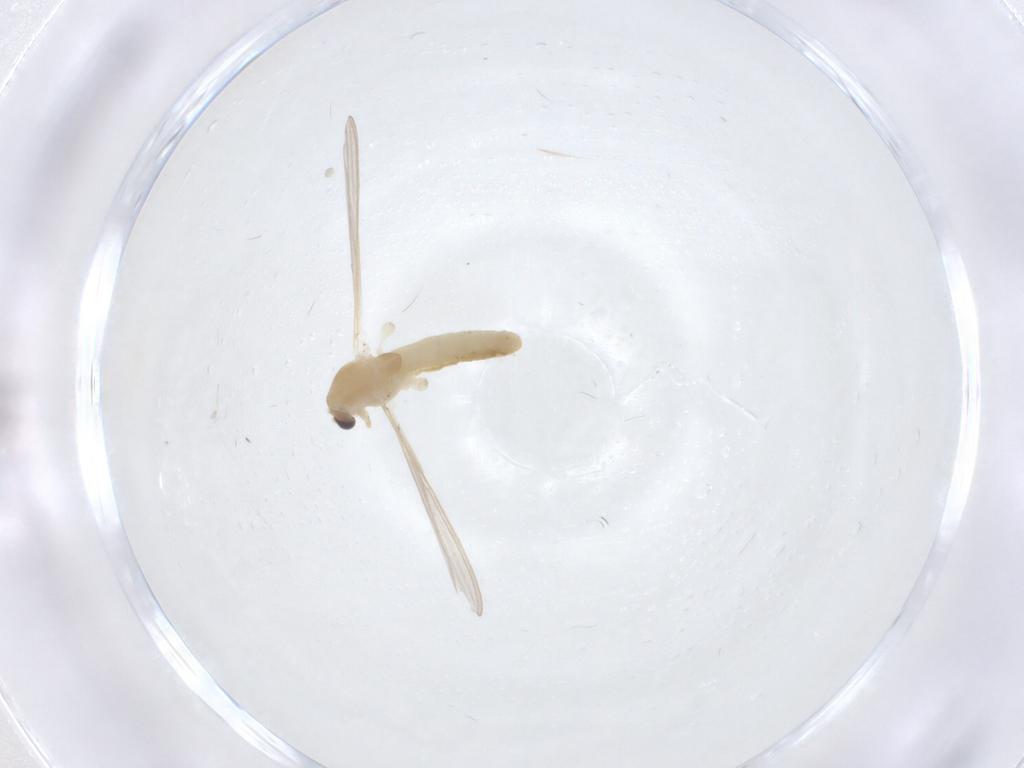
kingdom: Animalia
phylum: Arthropoda
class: Insecta
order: Diptera
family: Chironomidae
